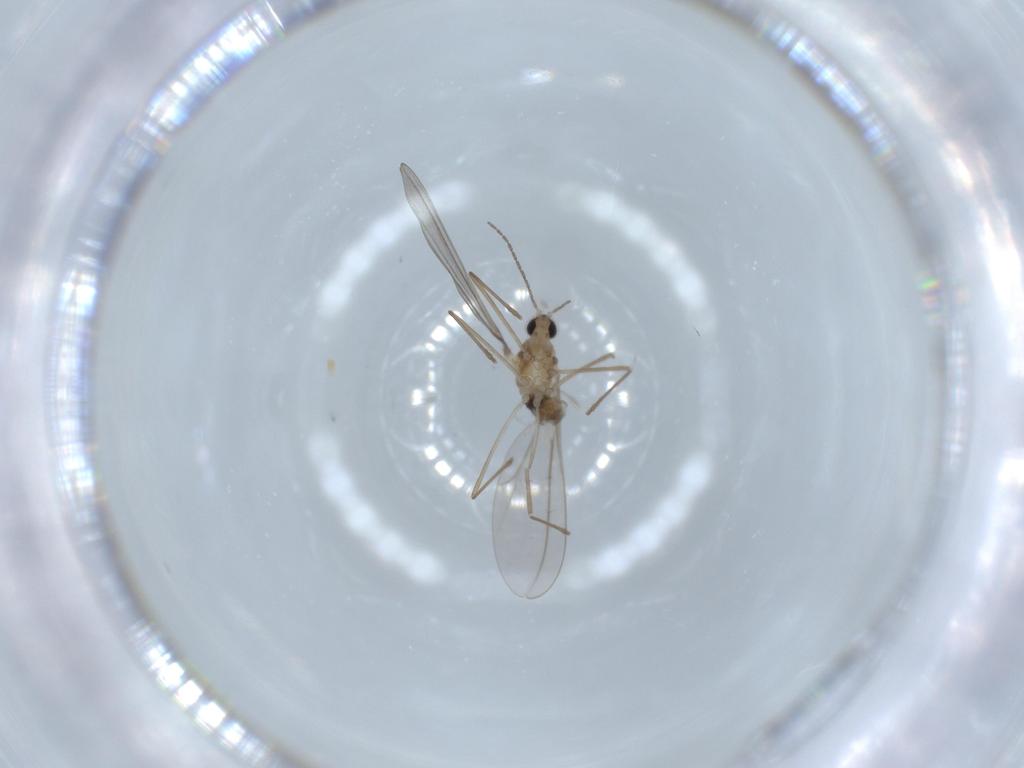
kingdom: Animalia
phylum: Arthropoda
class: Insecta
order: Diptera
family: Cecidomyiidae
